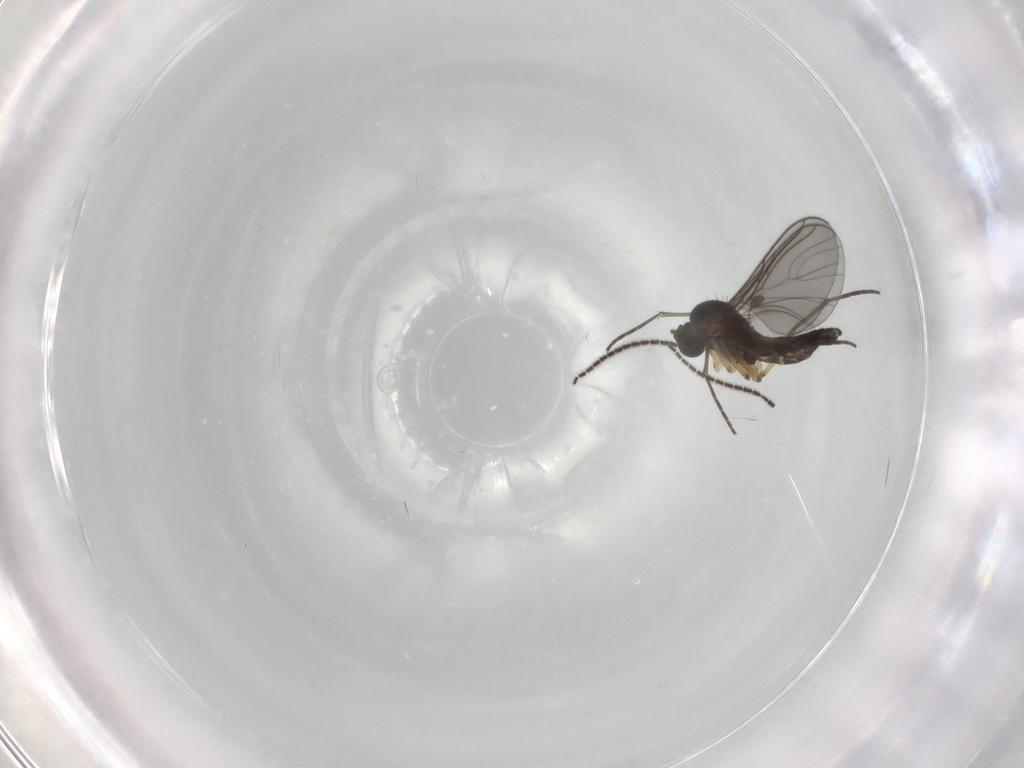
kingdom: Animalia
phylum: Arthropoda
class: Insecta
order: Diptera
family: Sciaridae
